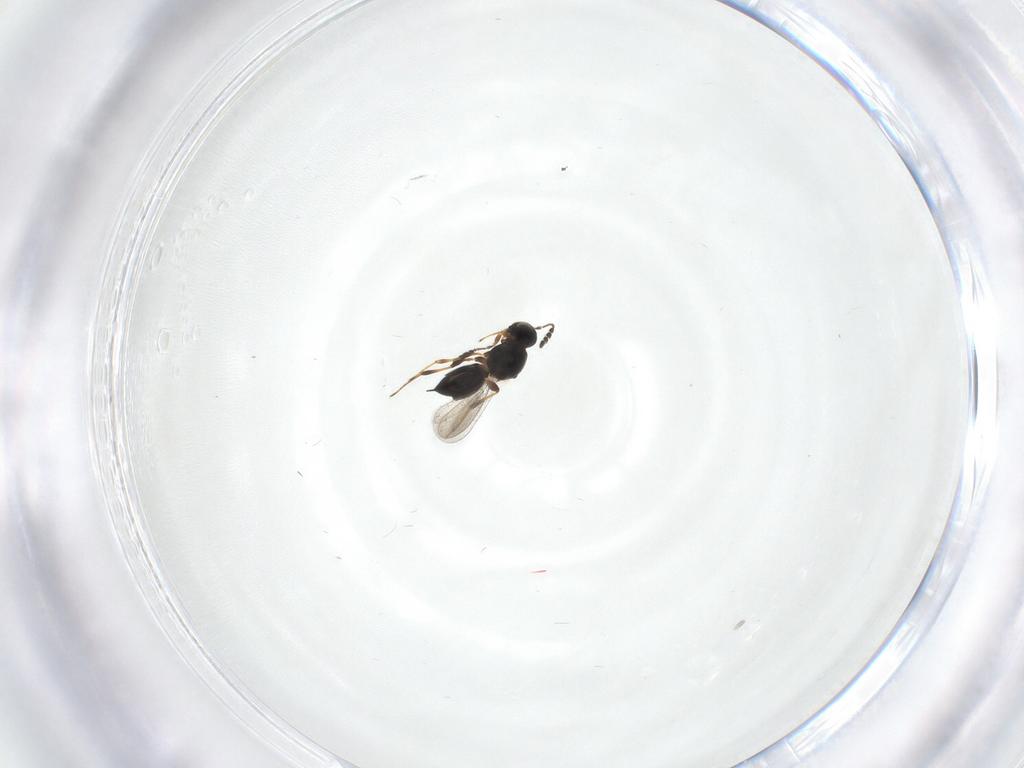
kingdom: Animalia
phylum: Arthropoda
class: Insecta
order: Hymenoptera
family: Platygastridae
